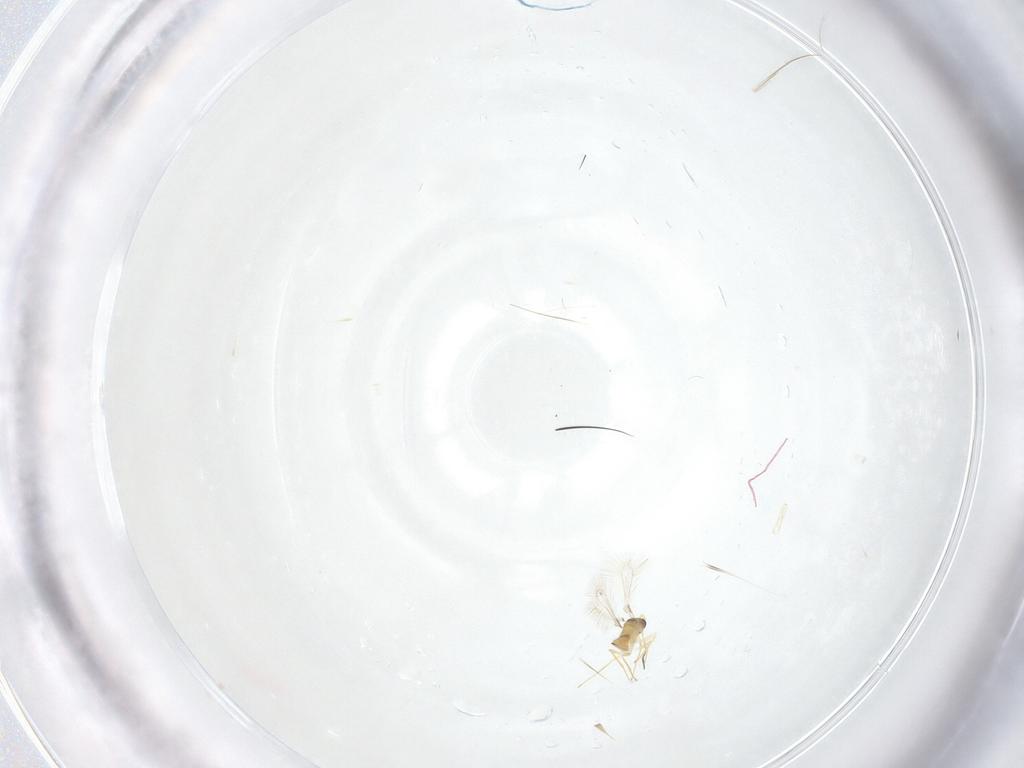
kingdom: Animalia
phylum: Arthropoda
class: Insecta
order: Hymenoptera
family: Mymaridae
